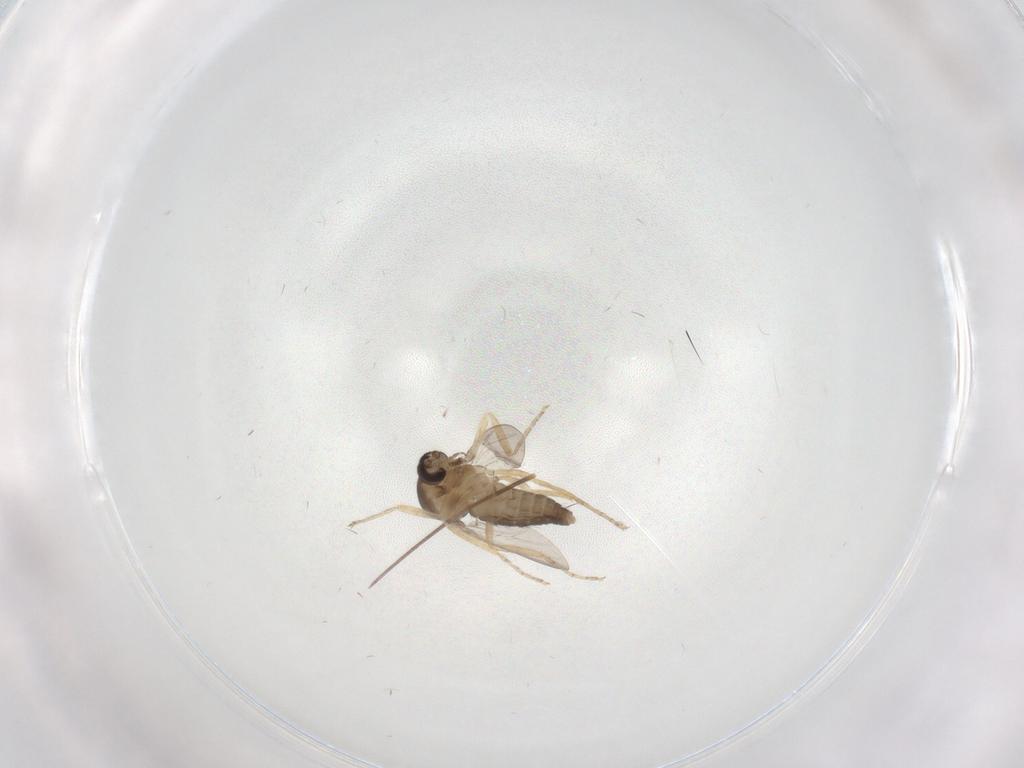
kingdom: Animalia
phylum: Arthropoda
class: Insecta
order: Diptera
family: Ceratopogonidae
